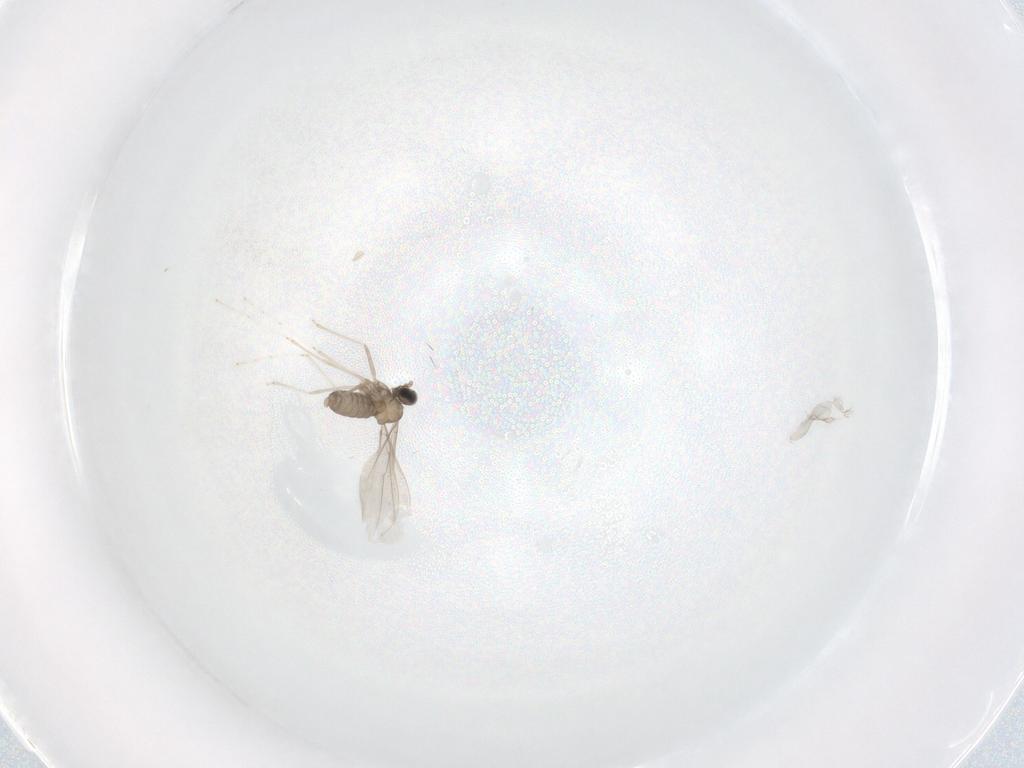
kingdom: Animalia
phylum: Arthropoda
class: Insecta
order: Diptera
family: Cecidomyiidae
